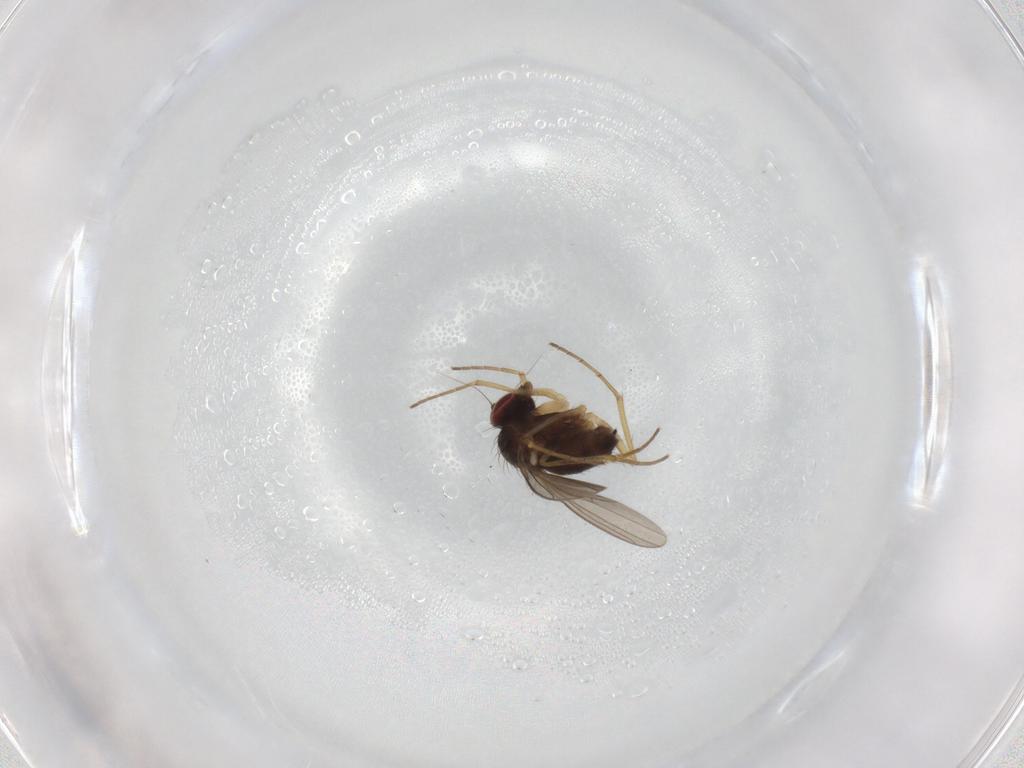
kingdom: Animalia
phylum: Arthropoda
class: Insecta
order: Diptera
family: Dolichopodidae
